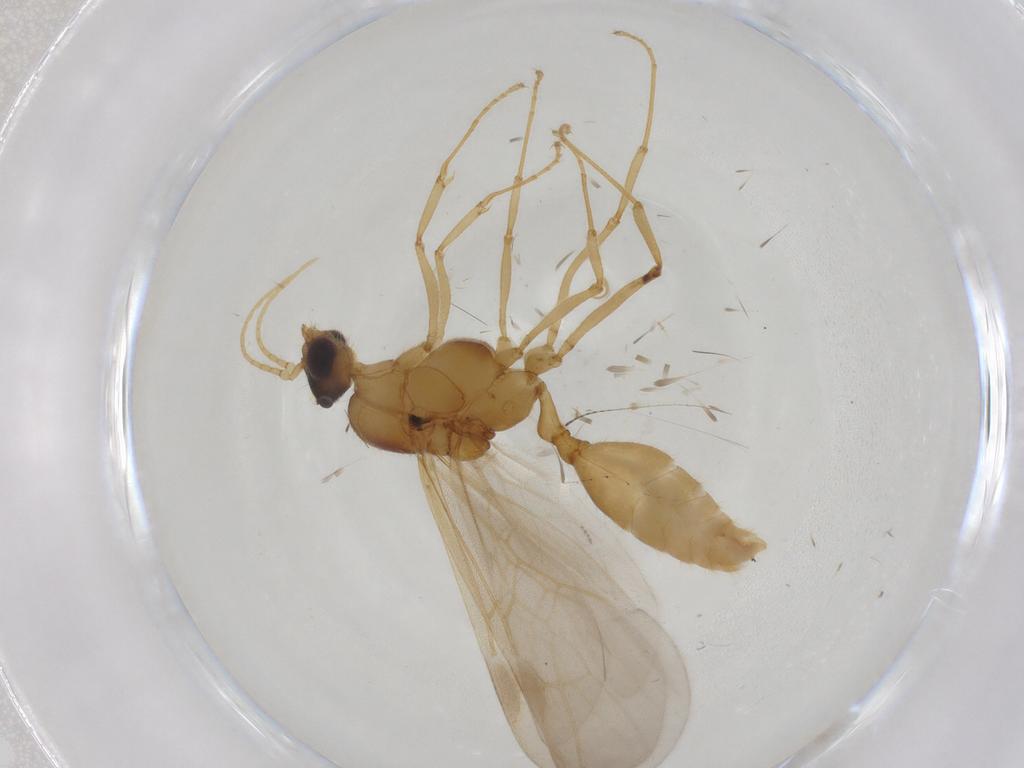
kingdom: Animalia
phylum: Arthropoda
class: Insecta
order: Hymenoptera
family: Formicidae
